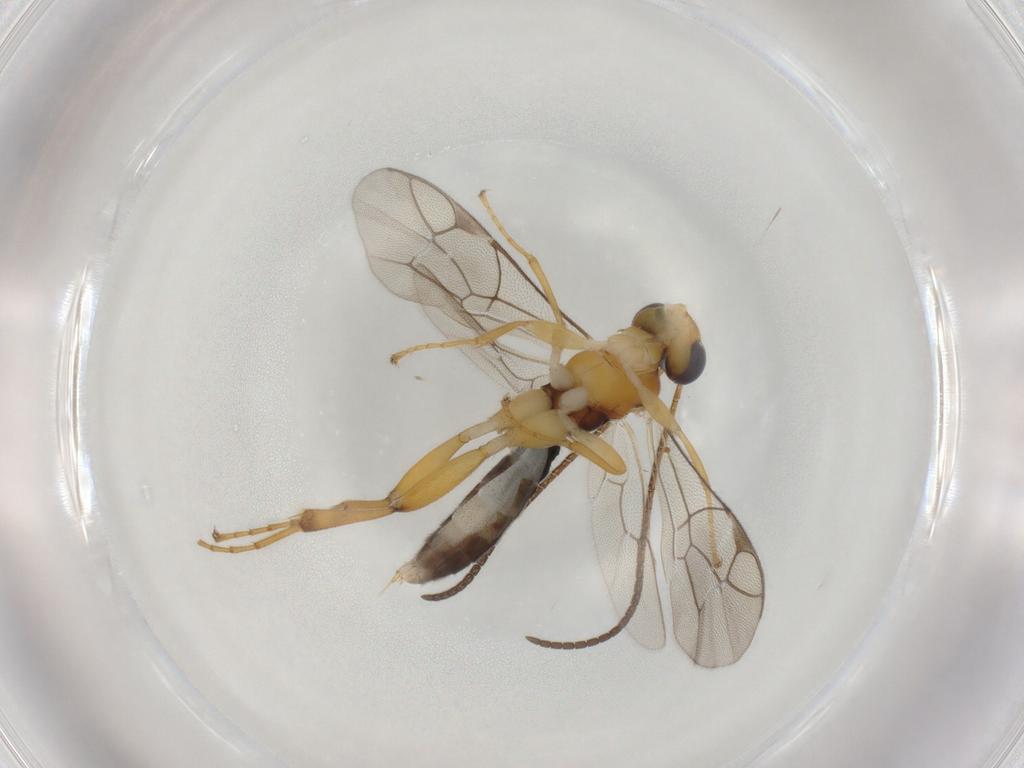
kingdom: Animalia
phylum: Arthropoda
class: Insecta
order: Hymenoptera
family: Ichneumonidae
